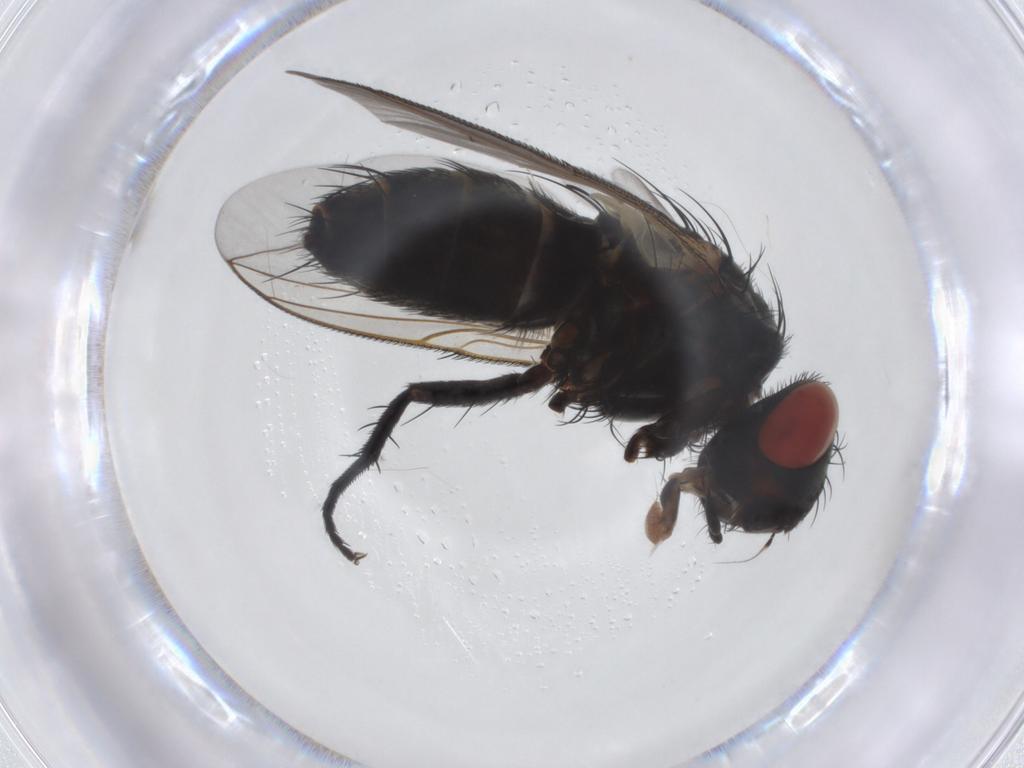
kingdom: Animalia
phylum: Arthropoda
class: Insecta
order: Diptera
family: Sarcophagidae
